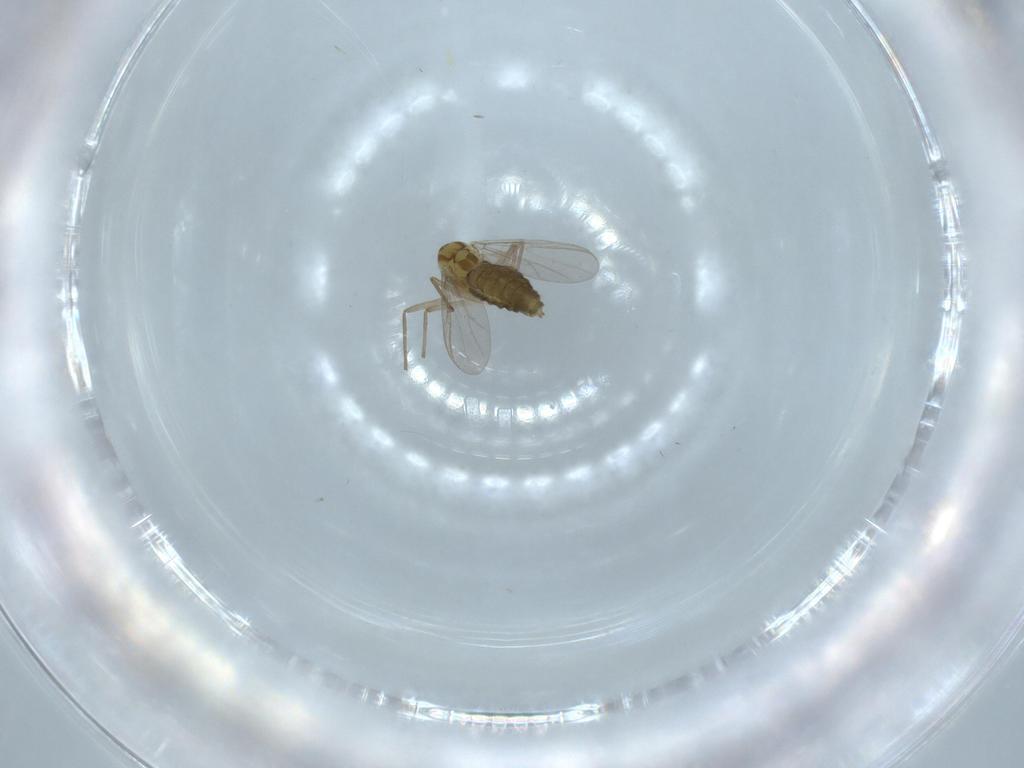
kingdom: Animalia
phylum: Arthropoda
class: Insecta
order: Diptera
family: Chironomidae
